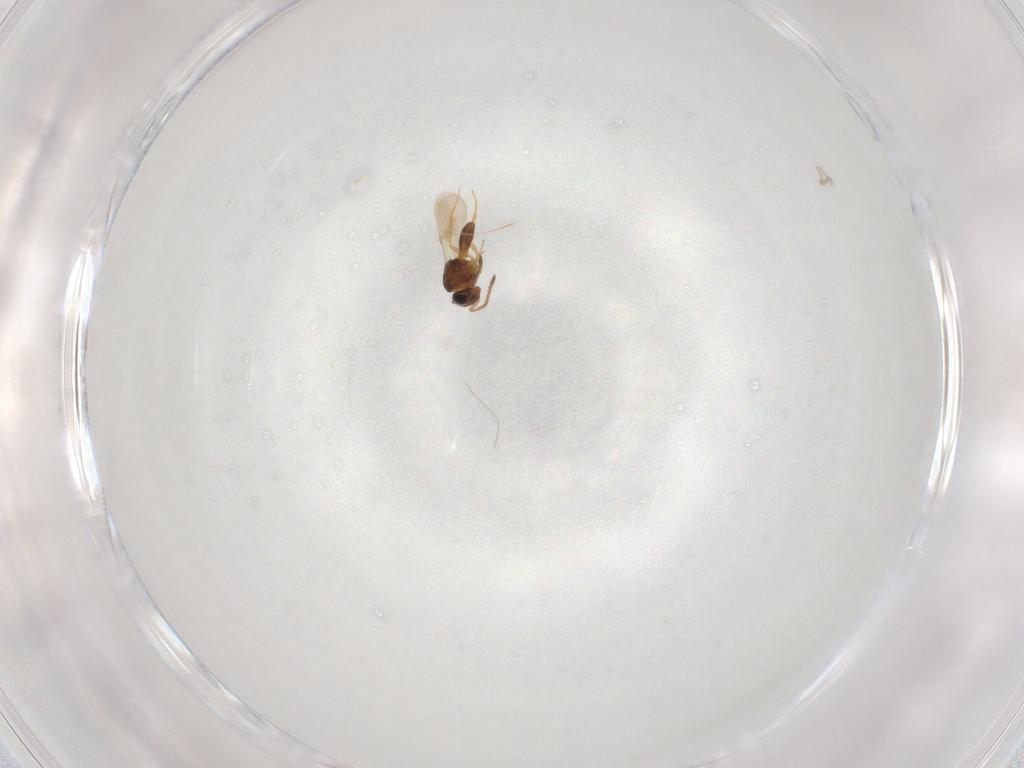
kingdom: Animalia
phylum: Arthropoda
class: Insecta
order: Hymenoptera
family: Scelionidae
